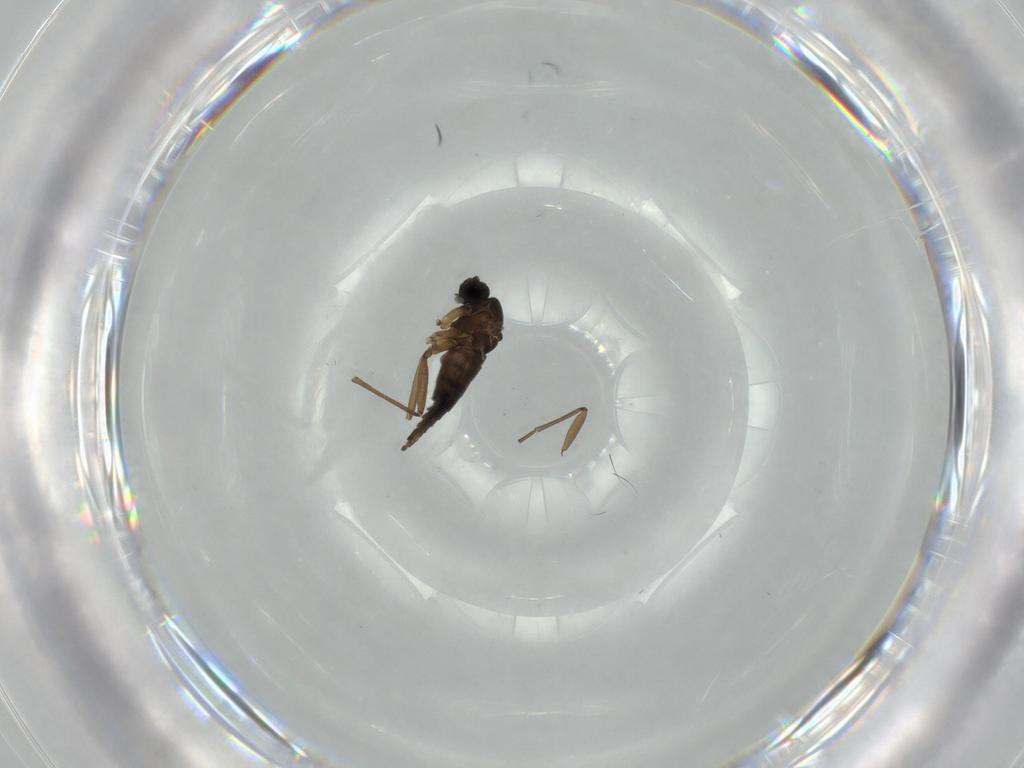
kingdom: Animalia
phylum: Arthropoda
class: Insecta
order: Diptera
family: Sciaridae
